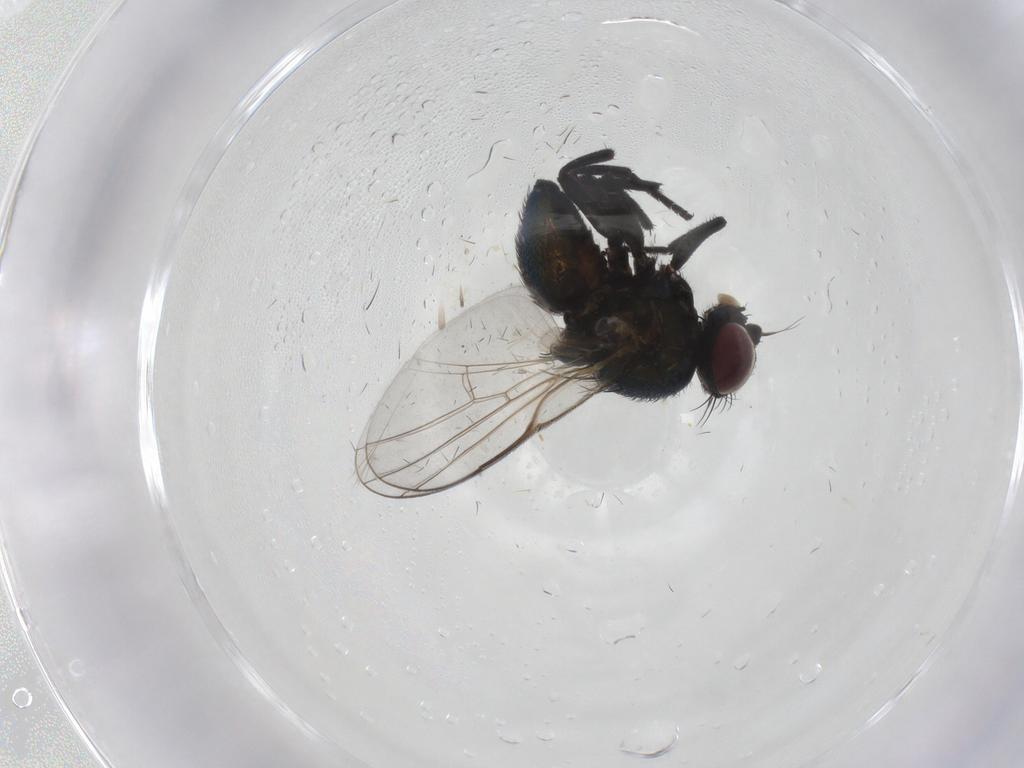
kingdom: Animalia
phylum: Arthropoda
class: Insecta
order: Diptera
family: Agromyzidae
